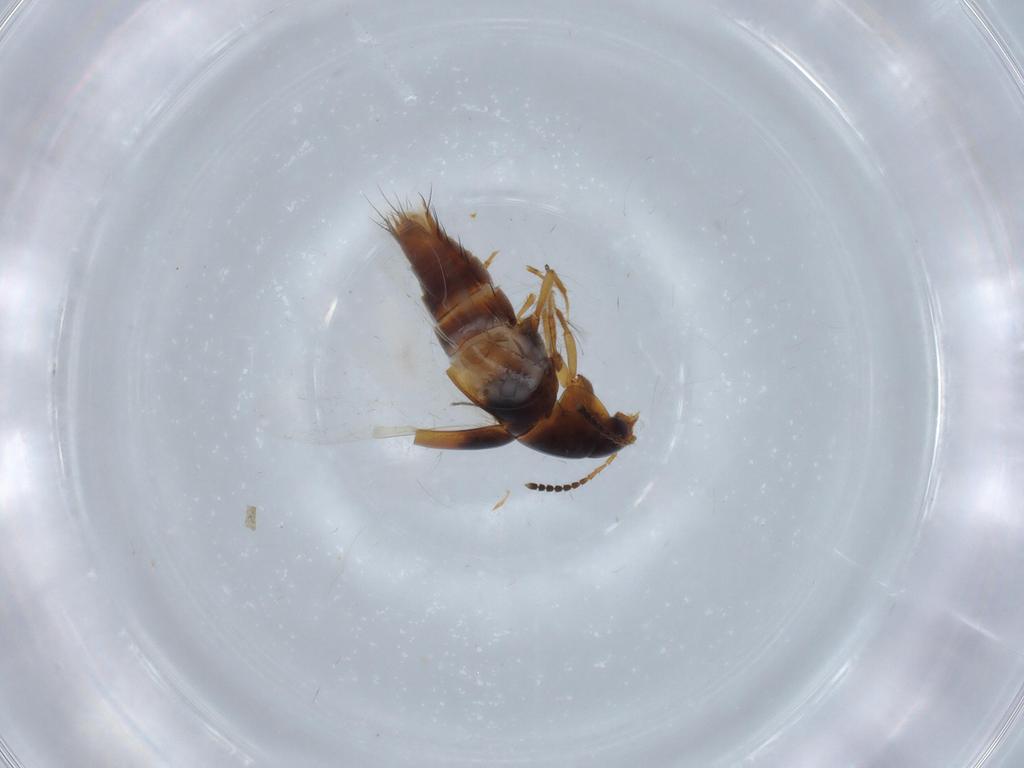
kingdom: Animalia
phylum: Arthropoda
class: Insecta
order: Coleoptera
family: Staphylinidae
